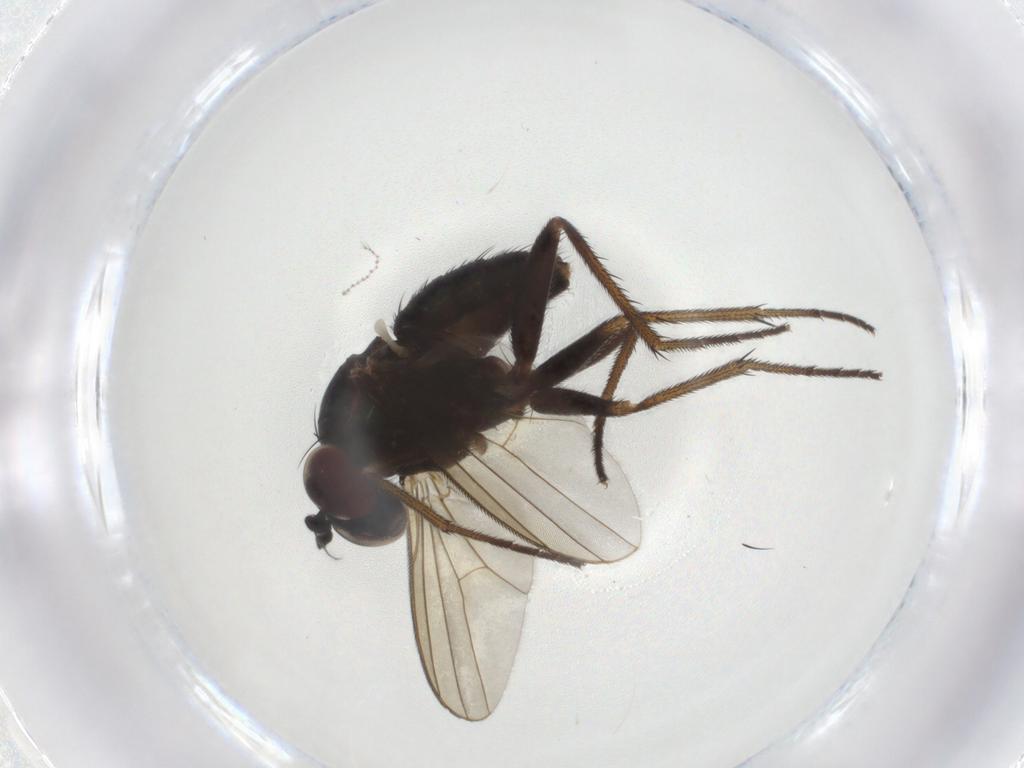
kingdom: Animalia
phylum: Arthropoda
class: Insecta
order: Diptera
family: Dolichopodidae
